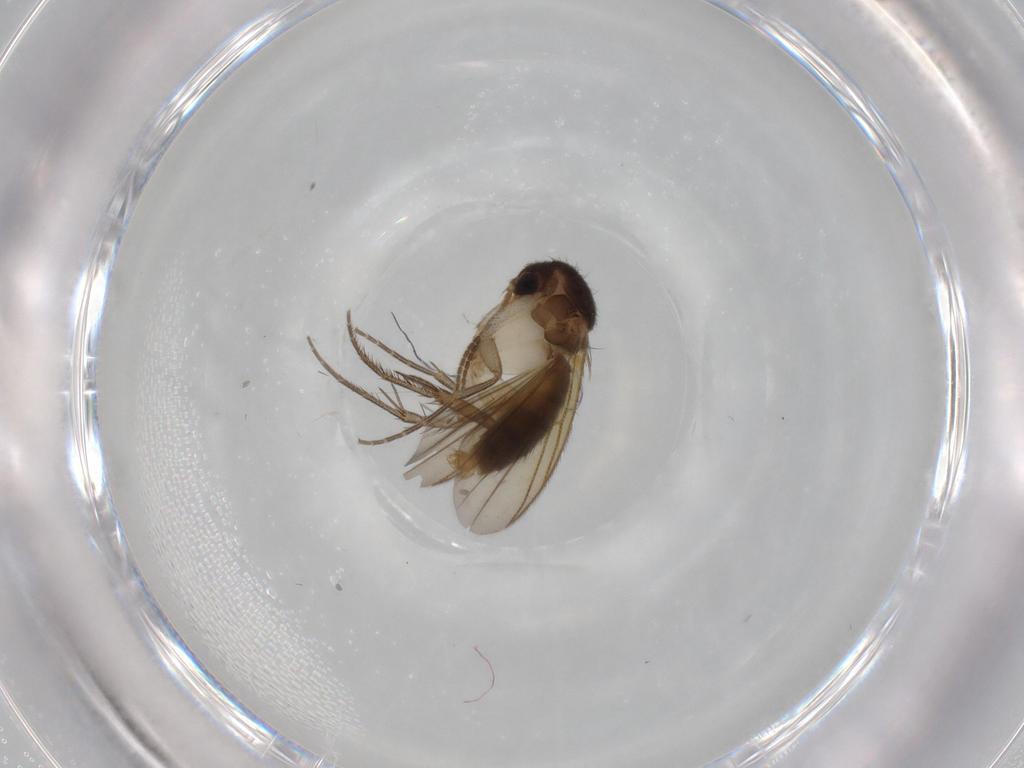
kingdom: Animalia
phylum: Arthropoda
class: Insecta
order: Diptera
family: Mycetophilidae
